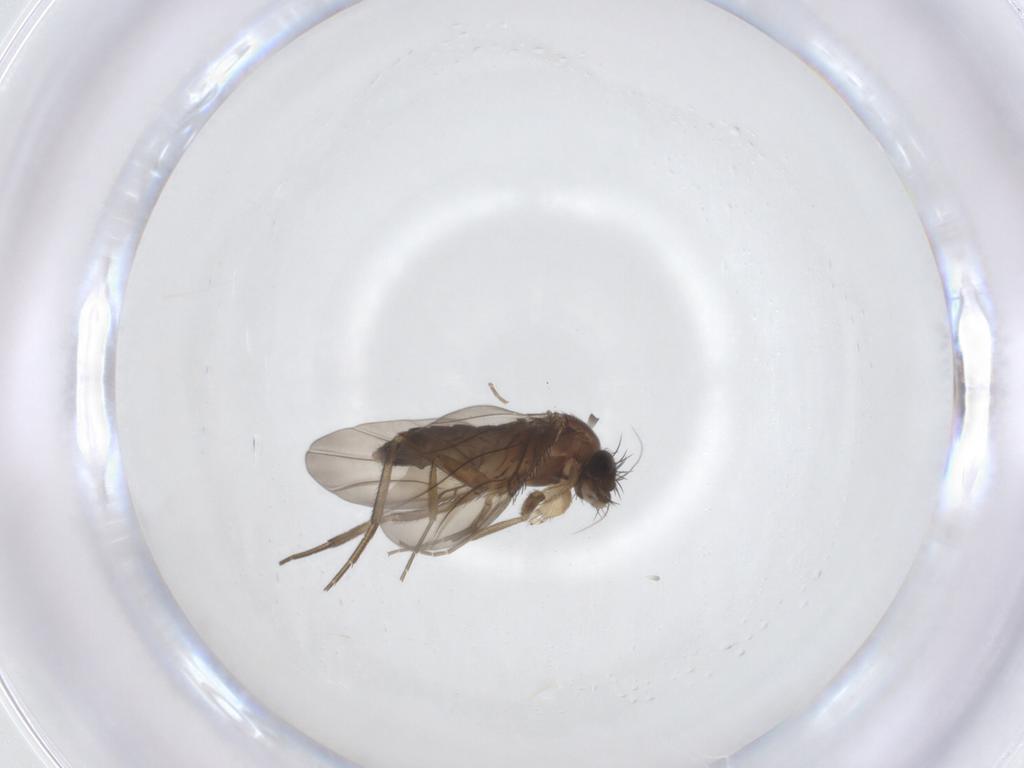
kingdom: Animalia
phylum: Arthropoda
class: Insecta
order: Diptera
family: Phoridae
